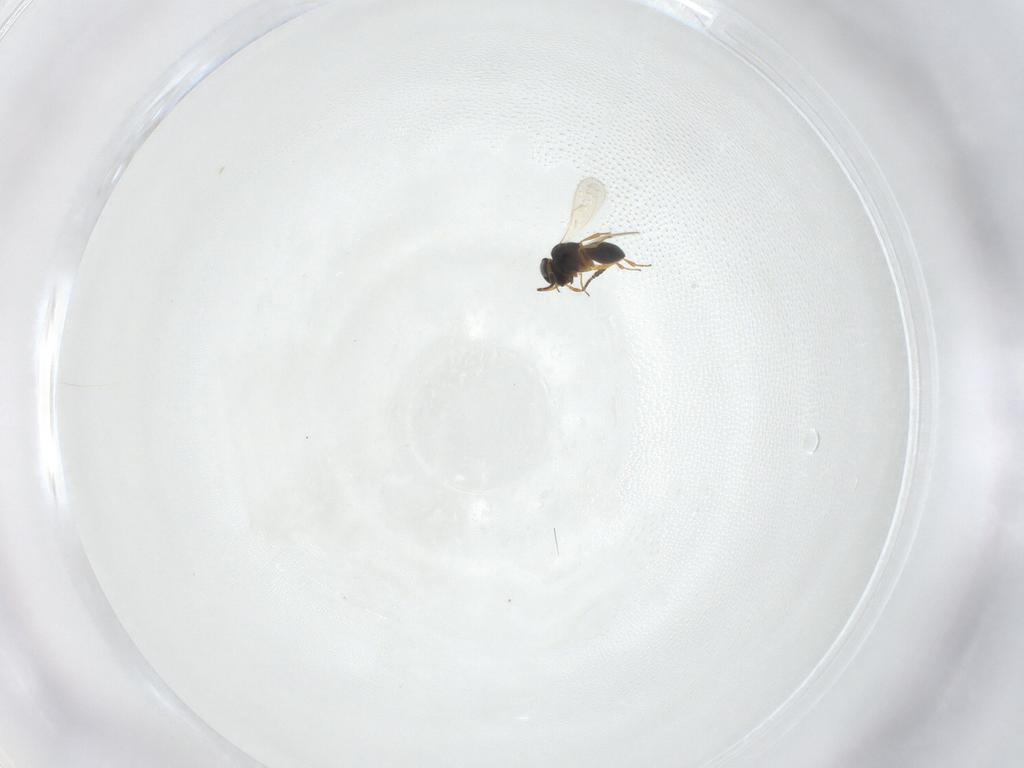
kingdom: Animalia
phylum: Arthropoda
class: Insecta
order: Hymenoptera
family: Scelionidae
